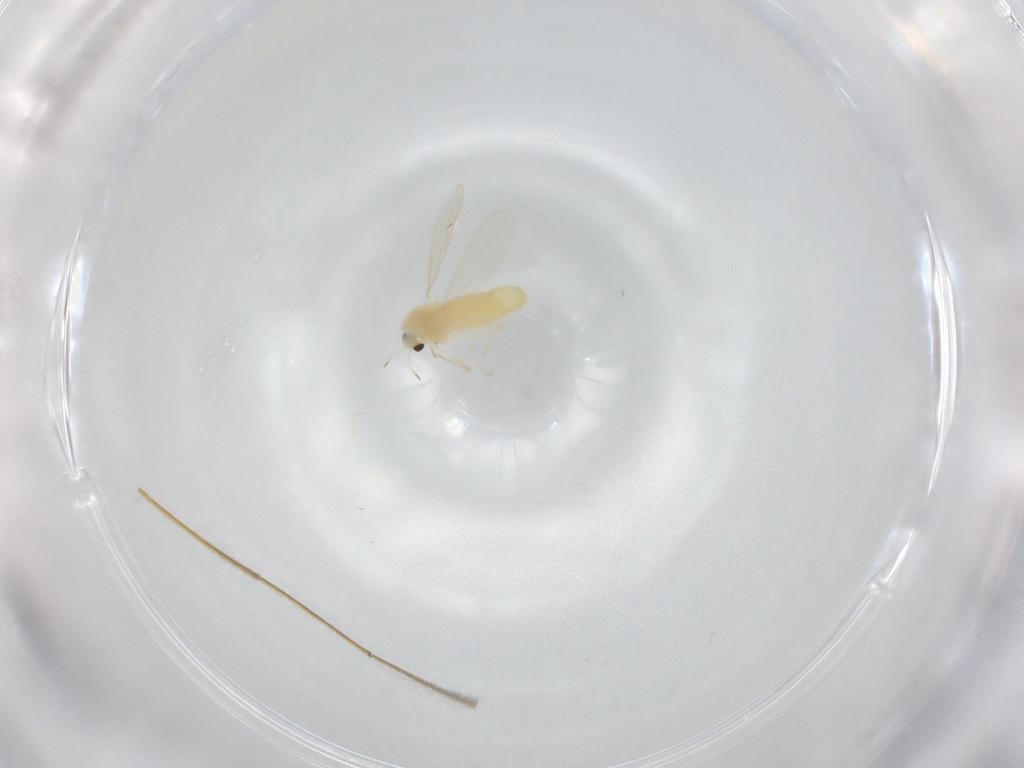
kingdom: Animalia
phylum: Arthropoda
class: Insecta
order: Diptera
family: Chironomidae
